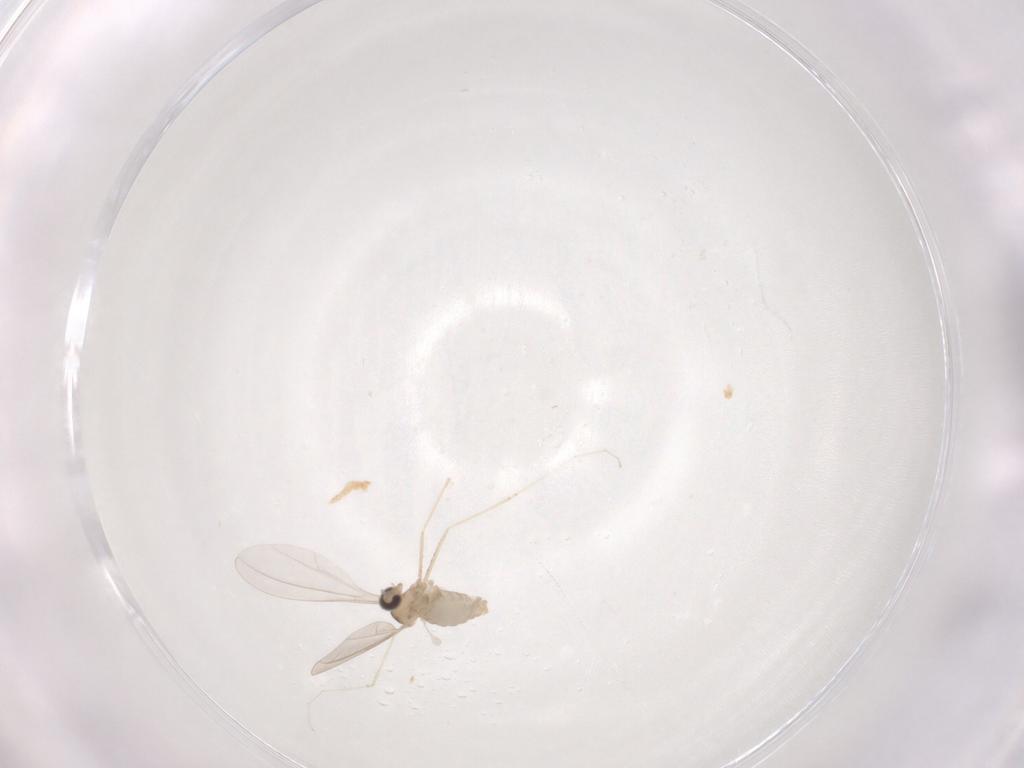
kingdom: Animalia
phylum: Arthropoda
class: Insecta
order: Diptera
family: Cecidomyiidae
